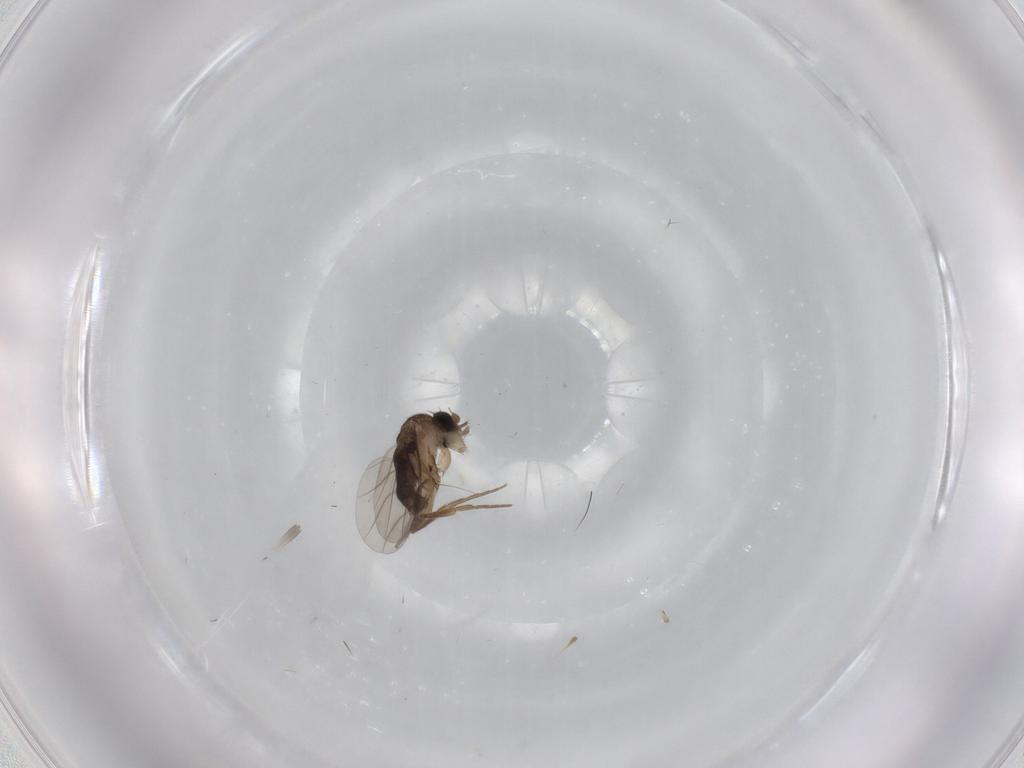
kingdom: Animalia
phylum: Arthropoda
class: Insecta
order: Diptera
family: Phoridae
